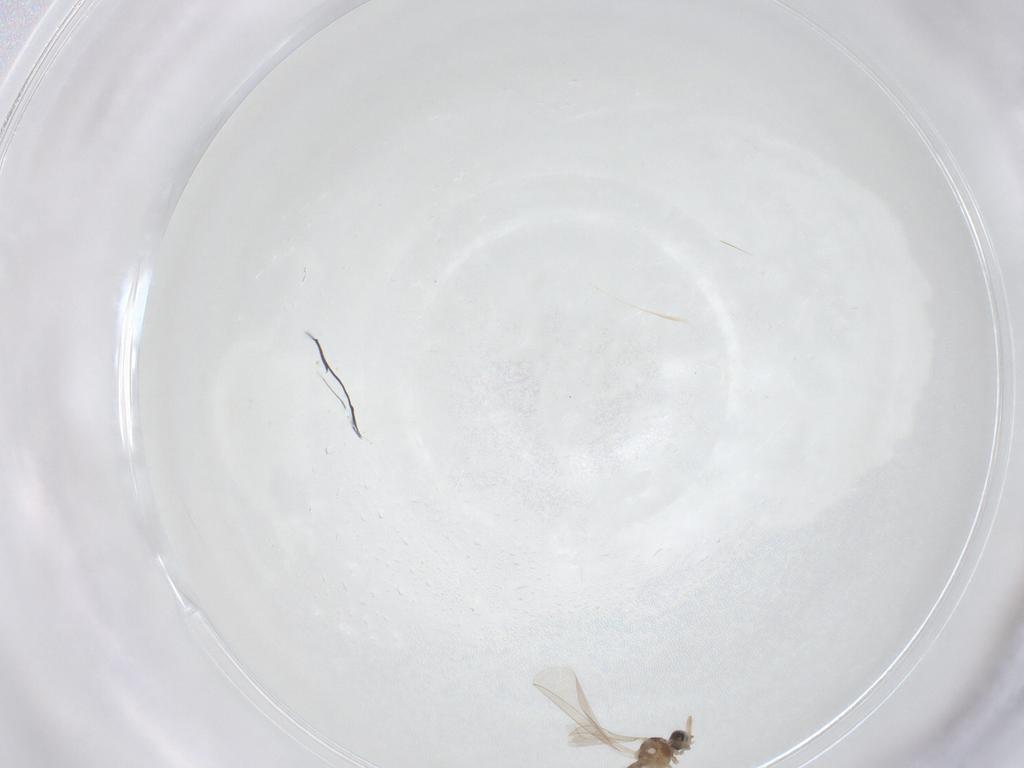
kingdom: Animalia
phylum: Arthropoda
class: Insecta
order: Diptera
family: Cecidomyiidae
